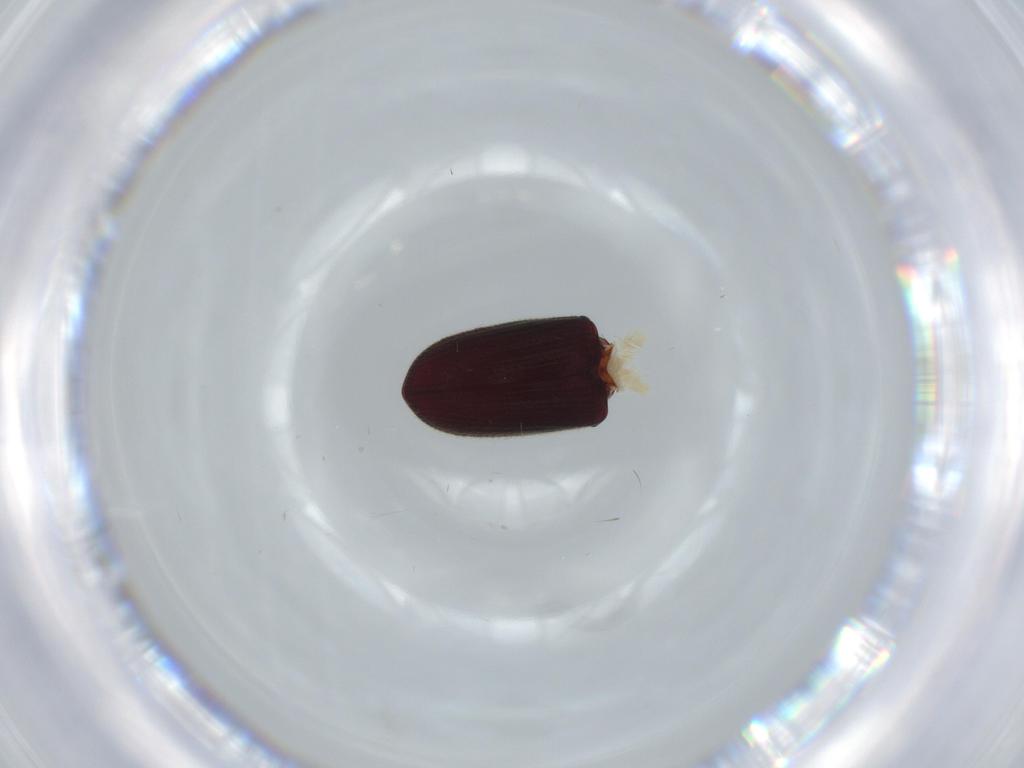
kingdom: Animalia
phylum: Arthropoda
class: Insecta
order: Coleoptera
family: Throscidae
